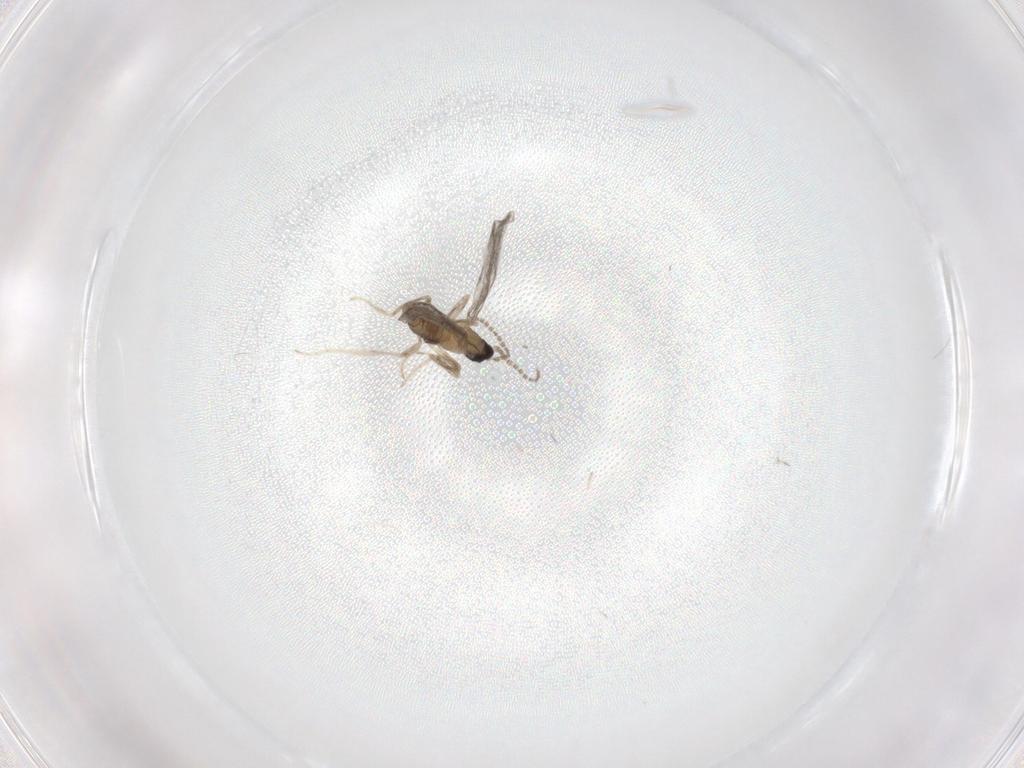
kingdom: Animalia
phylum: Arthropoda
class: Insecta
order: Diptera
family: Cecidomyiidae
